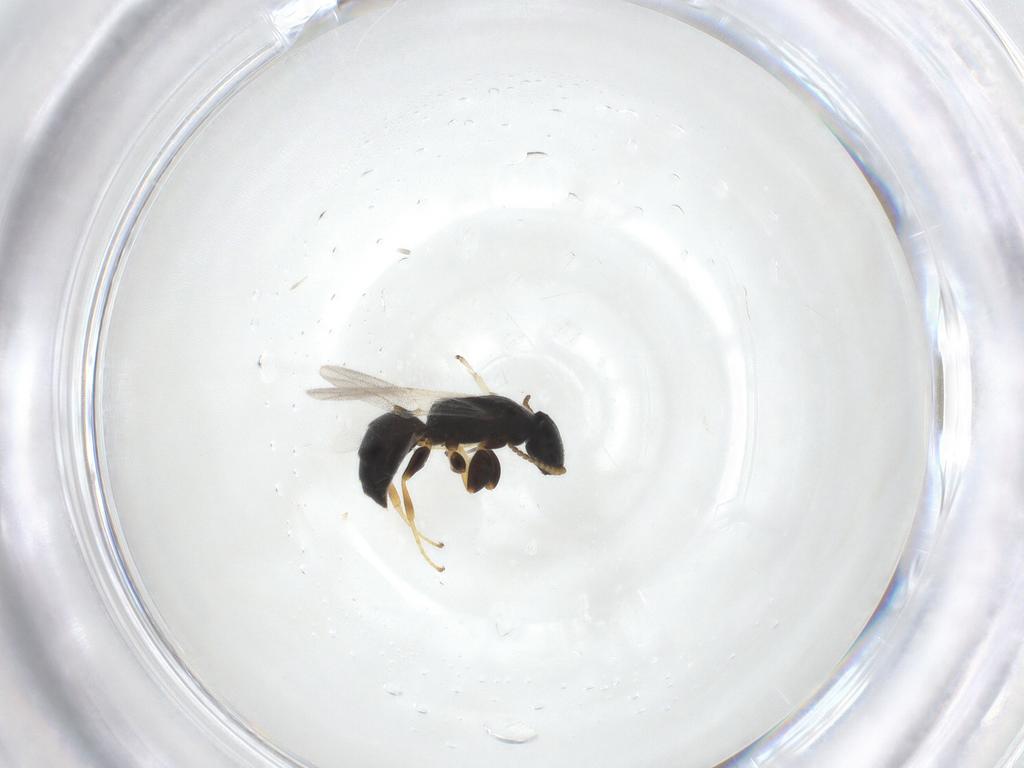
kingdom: Animalia
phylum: Arthropoda
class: Insecta
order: Hymenoptera
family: Bethylidae
